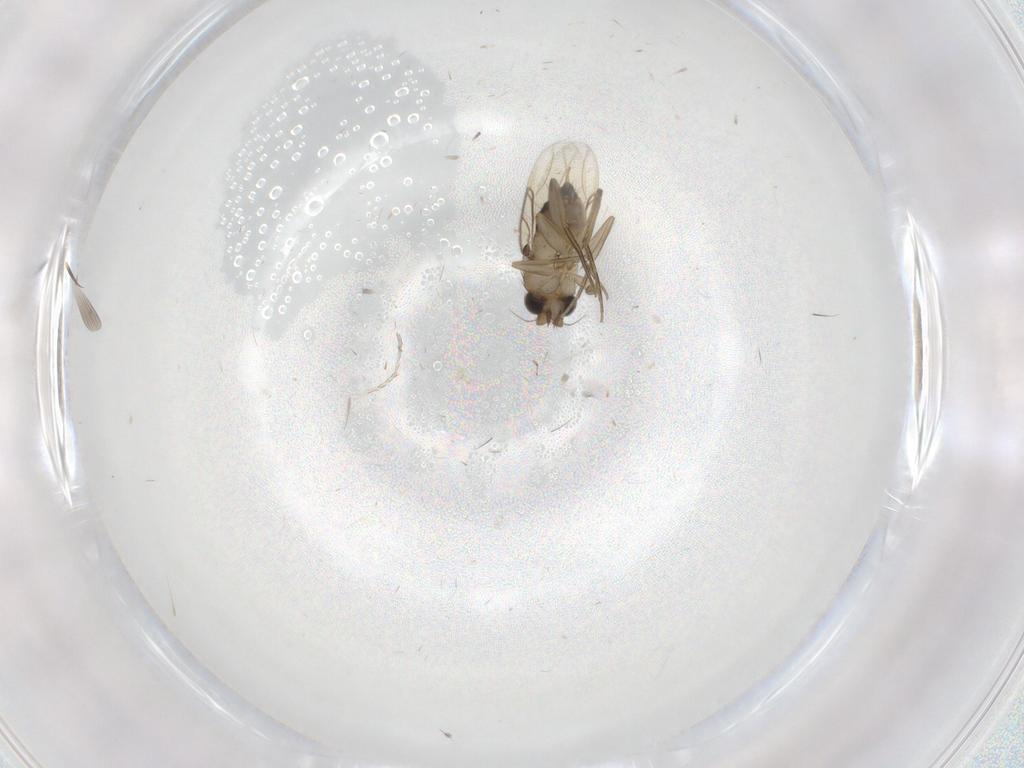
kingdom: Animalia
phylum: Arthropoda
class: Insecta
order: Diptera
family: Phoridae
